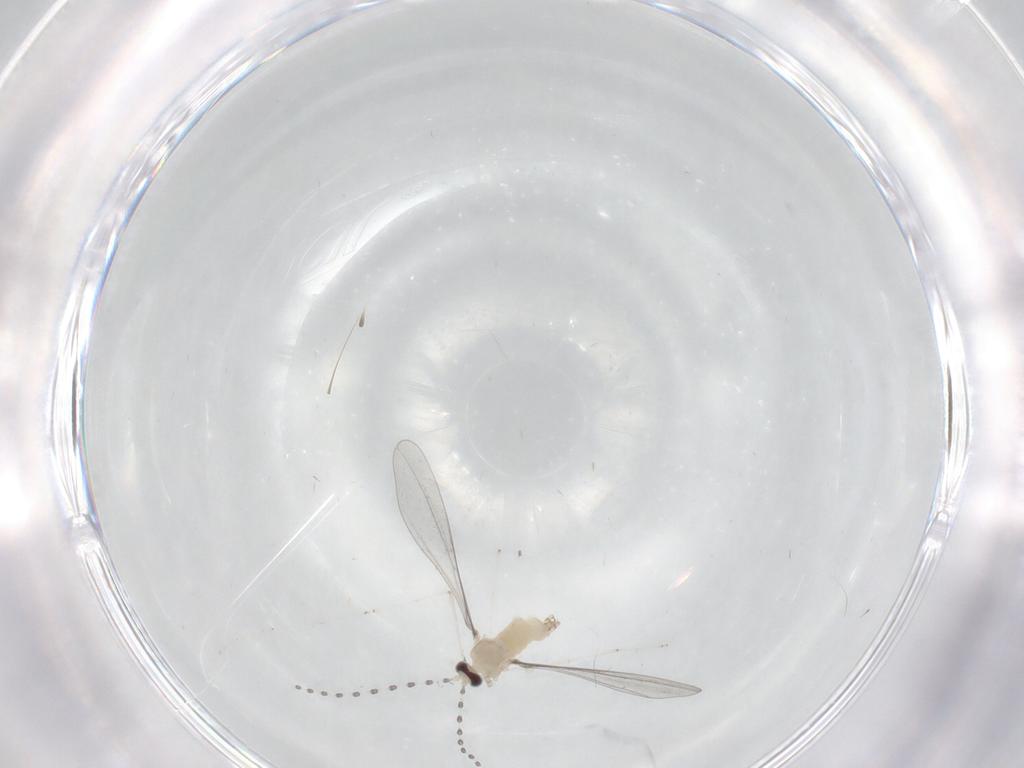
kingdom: Animalia
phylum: Arthropoda
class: Insecta
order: Diptera
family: Cecidomyiidae
